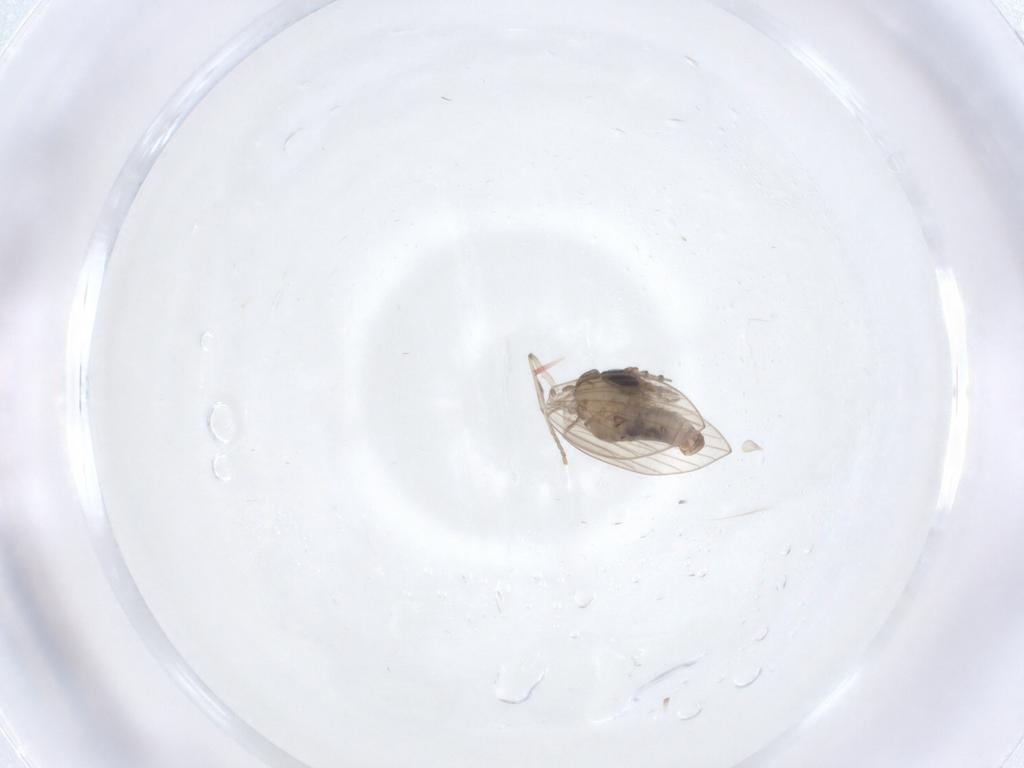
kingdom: Animalia
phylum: Arthropoda
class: Insecta
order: Diptera
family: Psychodidae
